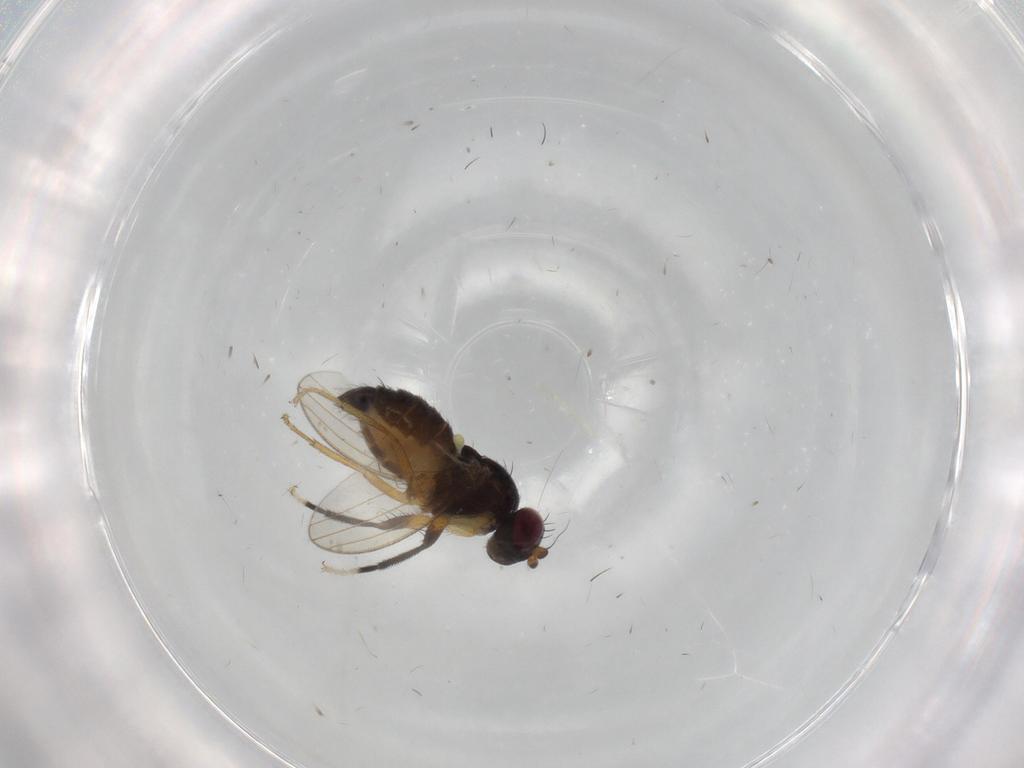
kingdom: Animalia
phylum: Arthropoda
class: Insecta
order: Diptera
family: Pseudopomyzidae
